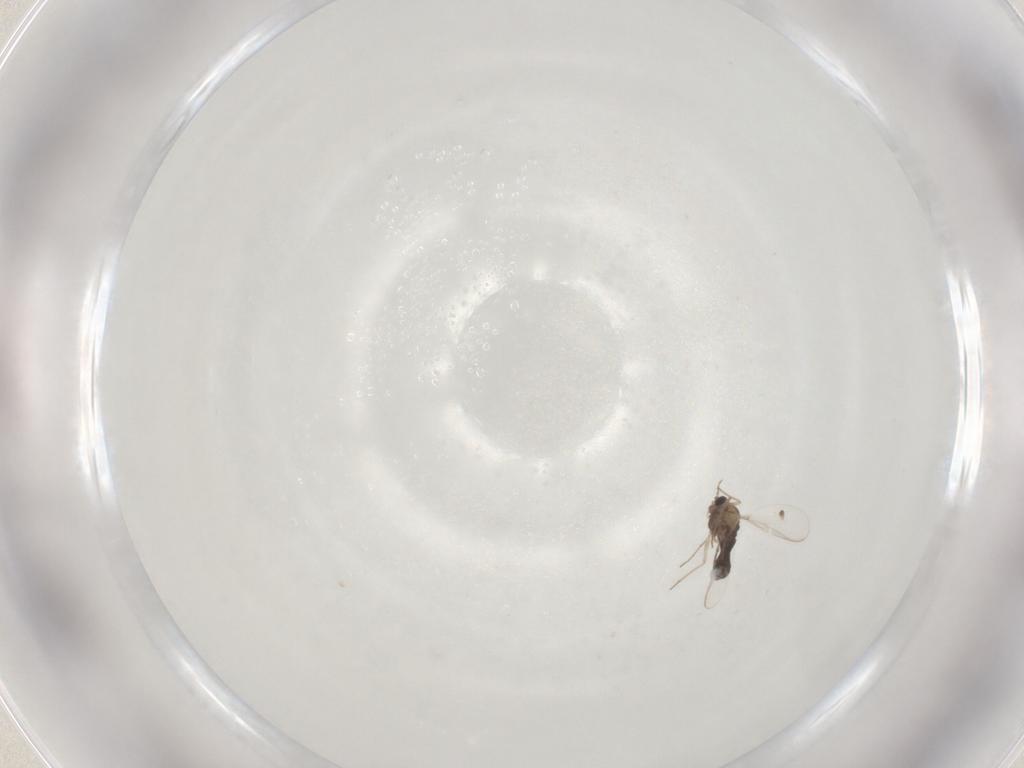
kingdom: Animalia
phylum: Arthropoda
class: Insecta
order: Diptera
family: Chironomidae
